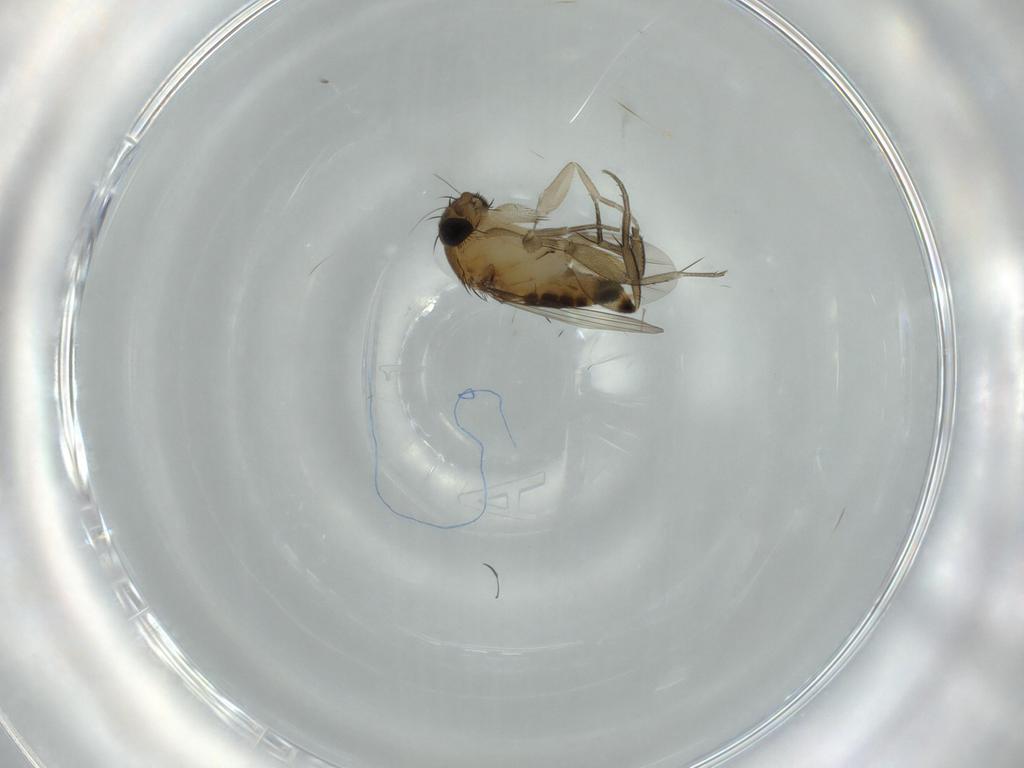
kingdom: Animalia
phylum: Arthropoda
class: Insecta
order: Diptera
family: Phoridae
